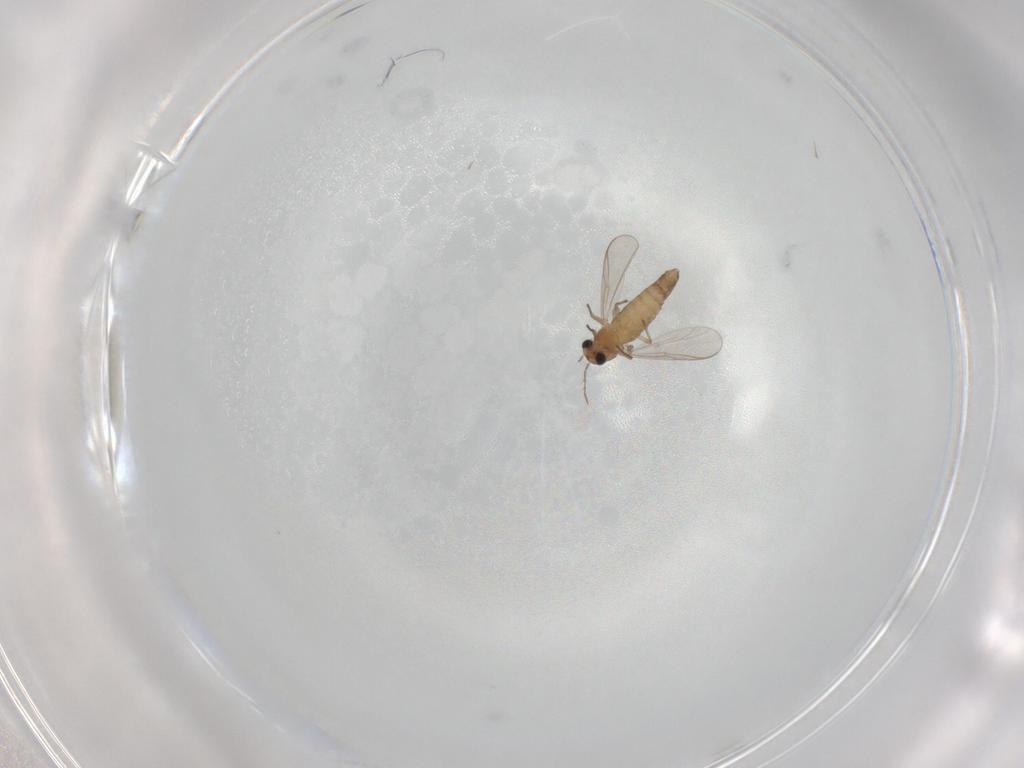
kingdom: Animalia
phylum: Arthropoda
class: Insecta
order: Diptera
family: Chironomidae
